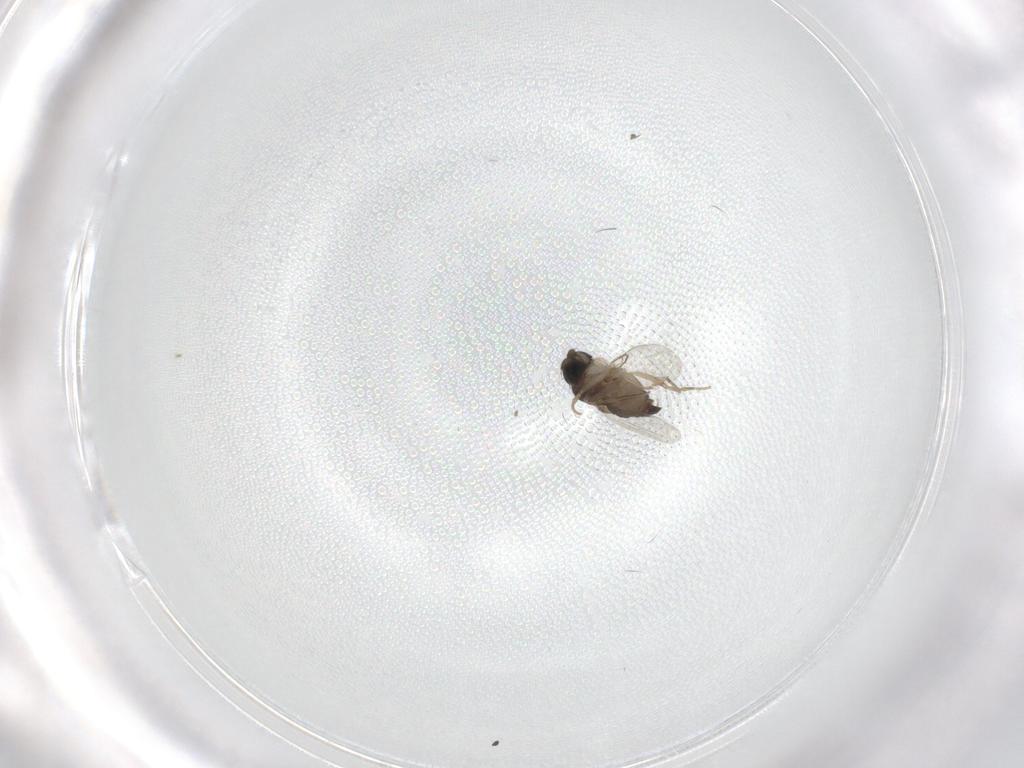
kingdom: Animalia
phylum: Arthropoda
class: Insecta
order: Diptera
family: Phoridae
